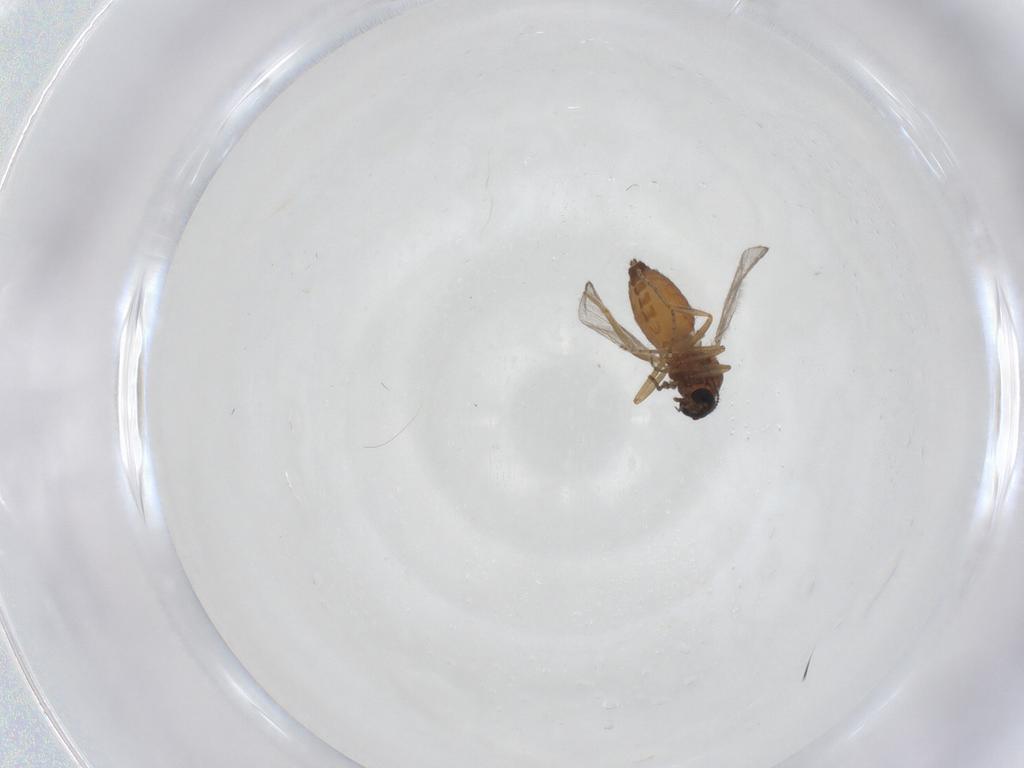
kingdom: Animalia
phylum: Arthropoda
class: Insecta
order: Diptera
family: Ceratopogonidae
